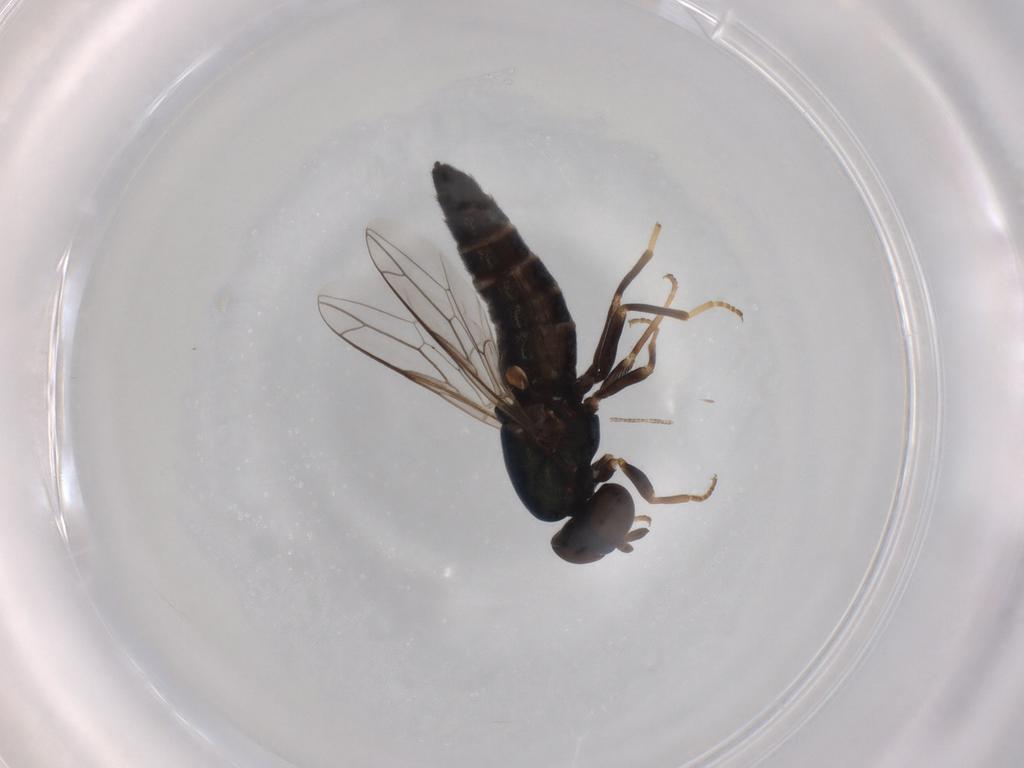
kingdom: Animalia
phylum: Arthropoda
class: Insecta
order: Diptera
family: Scenopinidae
